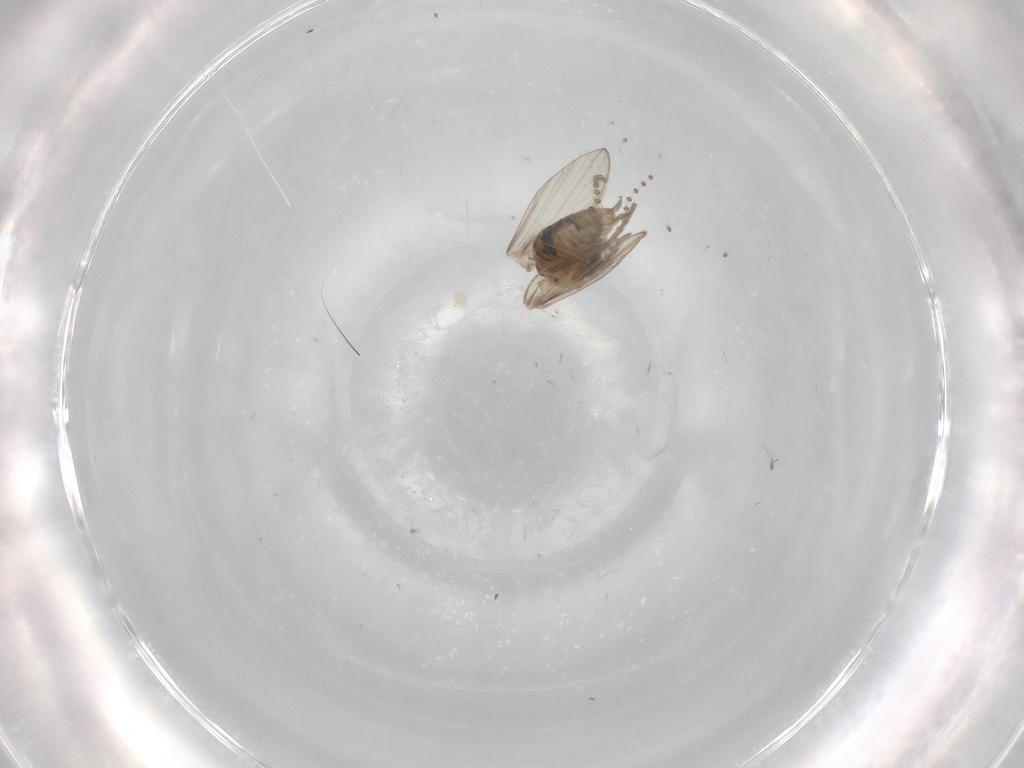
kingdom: Animalia
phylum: Arthropoda
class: Insecta
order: Diptera
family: Psychodidae
